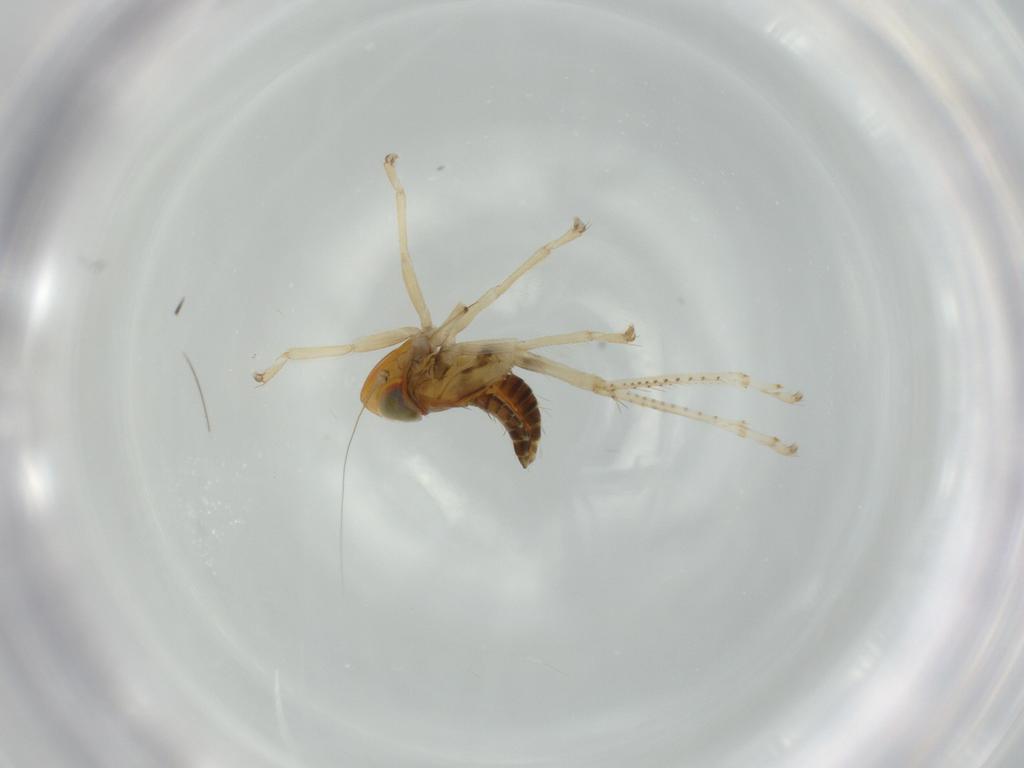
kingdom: Animalia
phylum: Arthropoda
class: Insecta
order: Hemiptera
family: Cicadellidae
